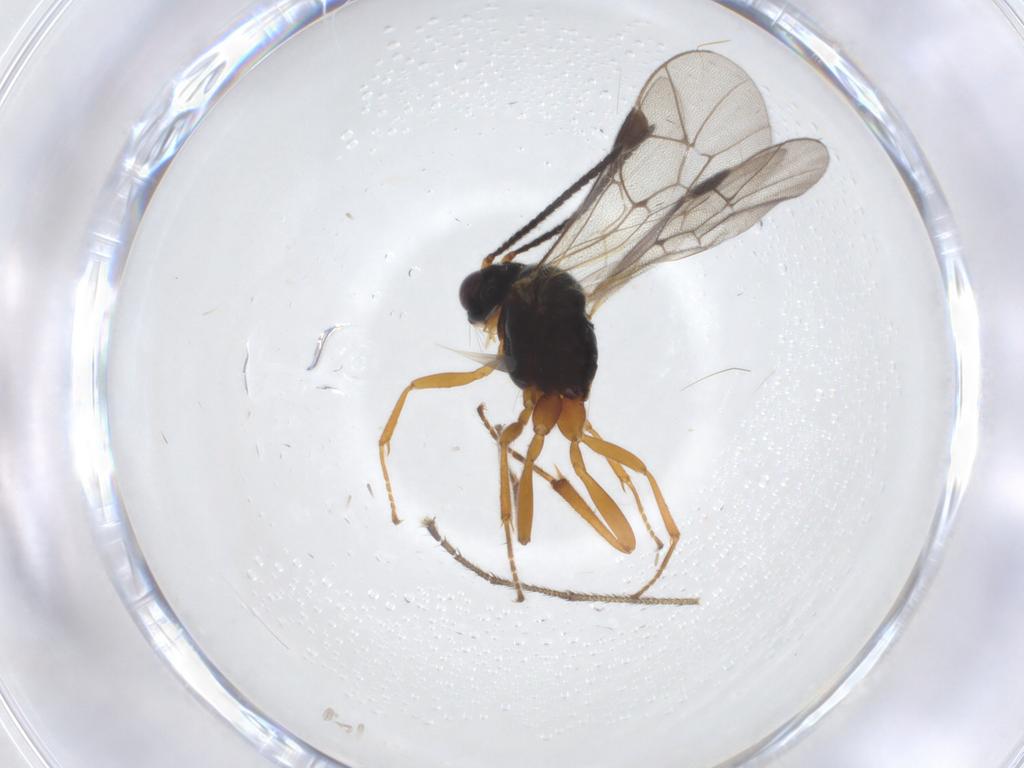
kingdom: Animalia
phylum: Arthropoda
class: Insecta
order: Hymenoptera
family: Ichneumonidae
